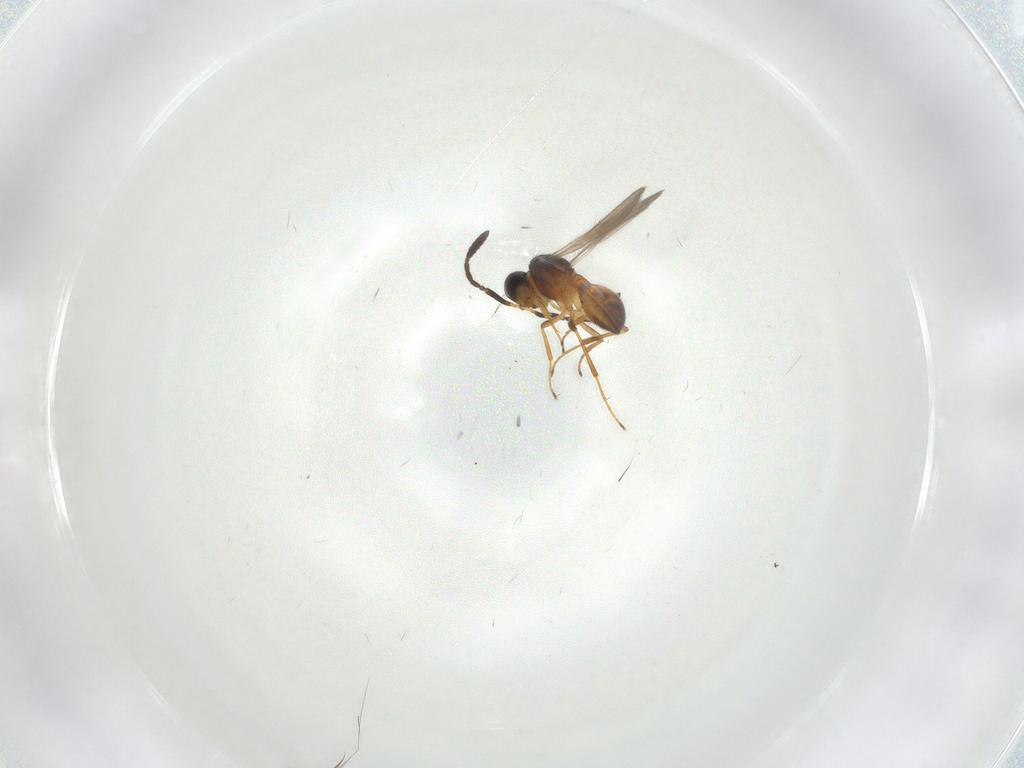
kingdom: Animalia
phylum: Arthropoda
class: Insecta
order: Hymenoptera
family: Scelionidae
